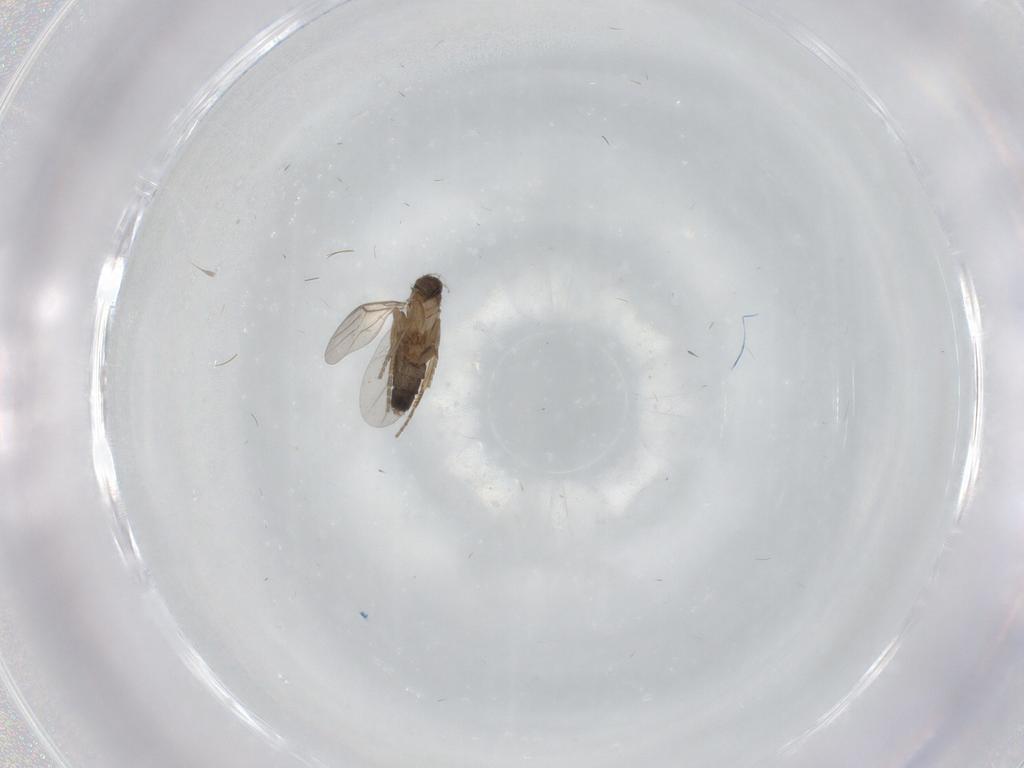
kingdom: Animalia
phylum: Arthropoda
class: Insecta
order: Diptera
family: Phoridae
